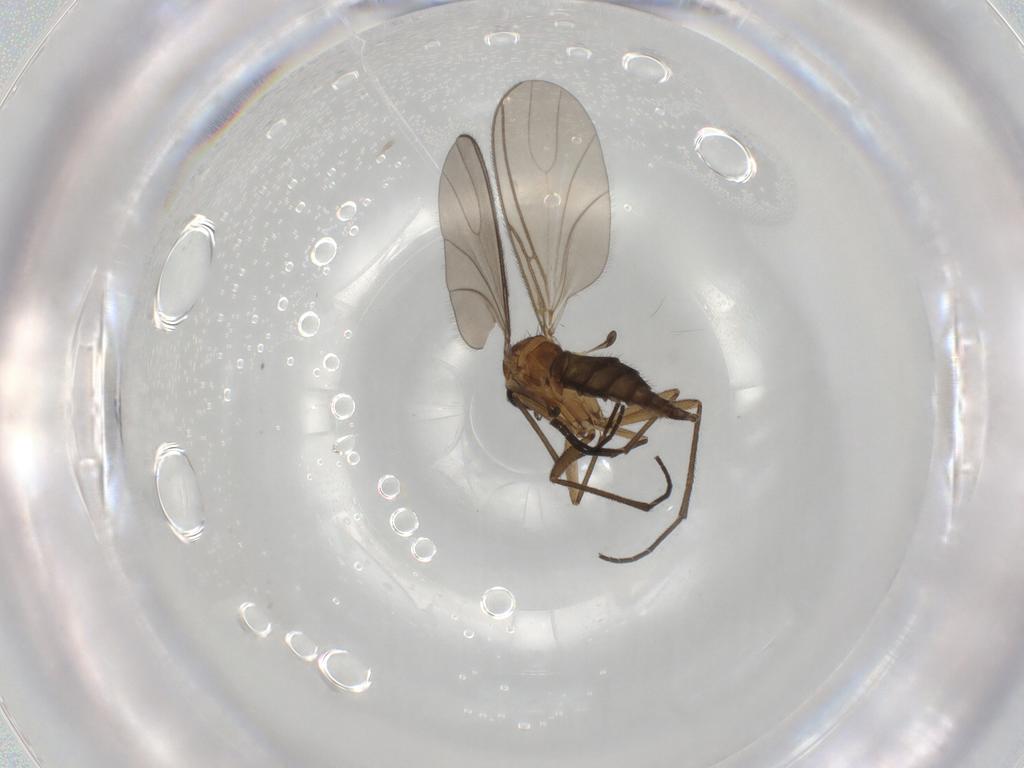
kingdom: Animalia
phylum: Arthropoda
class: Insecta
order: Diptera
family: Sciaridae
